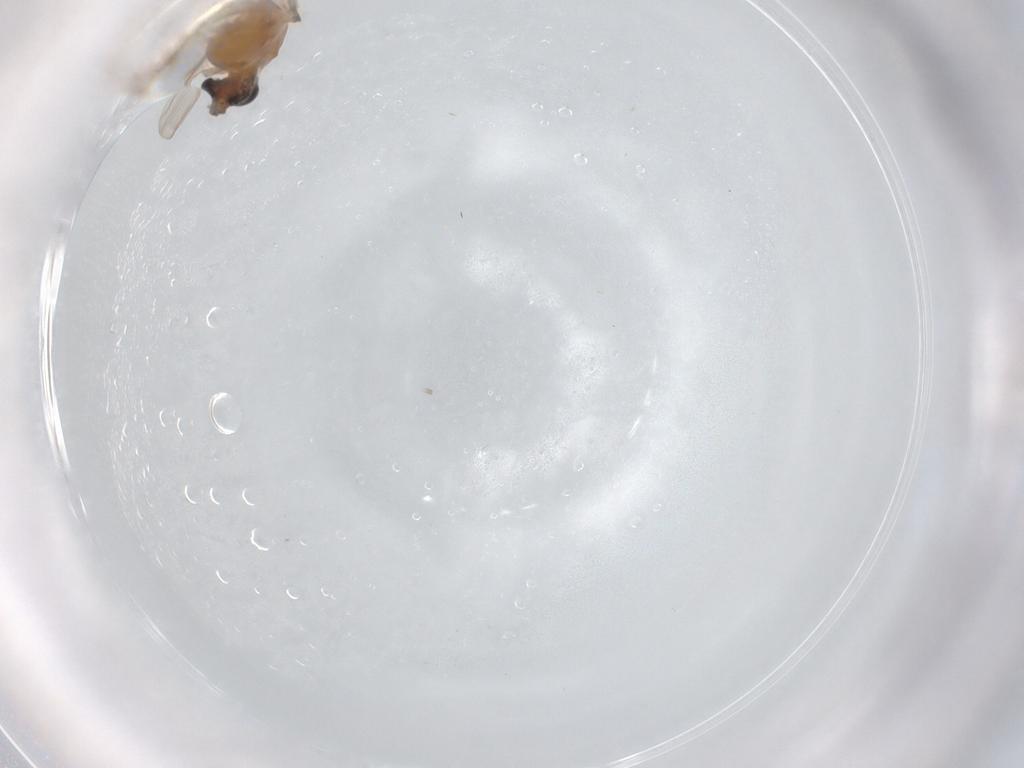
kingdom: Animalia
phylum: Arthropoda
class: Insecta
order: Diptera
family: Chironomidae
